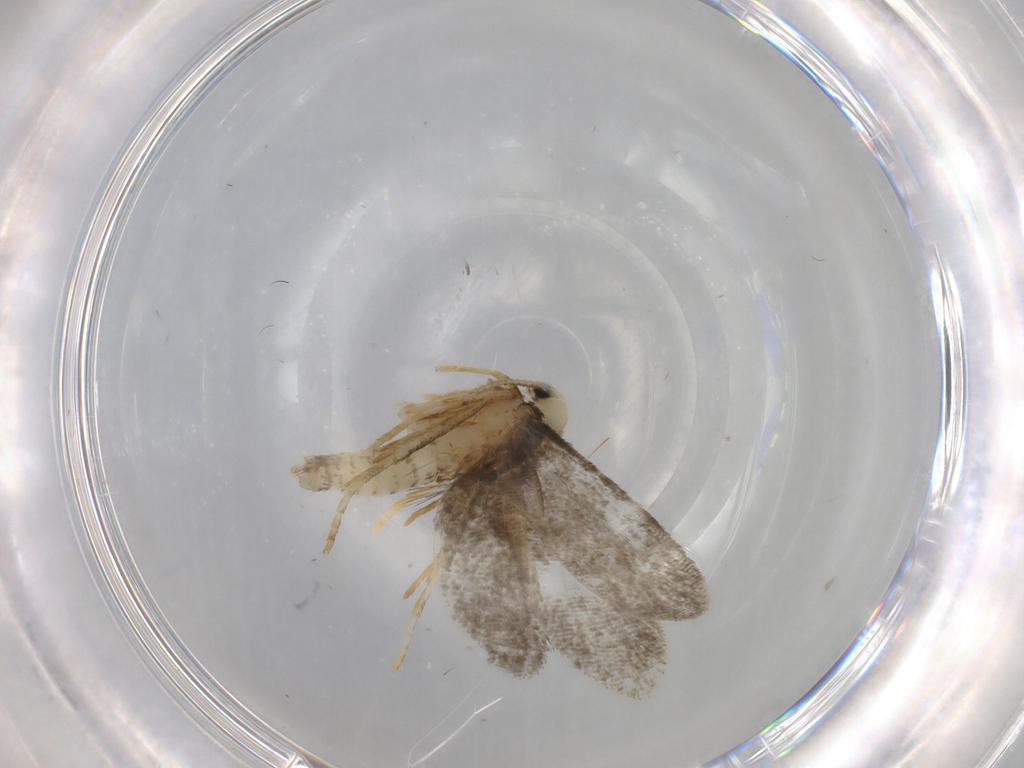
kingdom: Animalia
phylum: Arthropoda
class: Insecta
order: Lepidoptera
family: Psychidae
